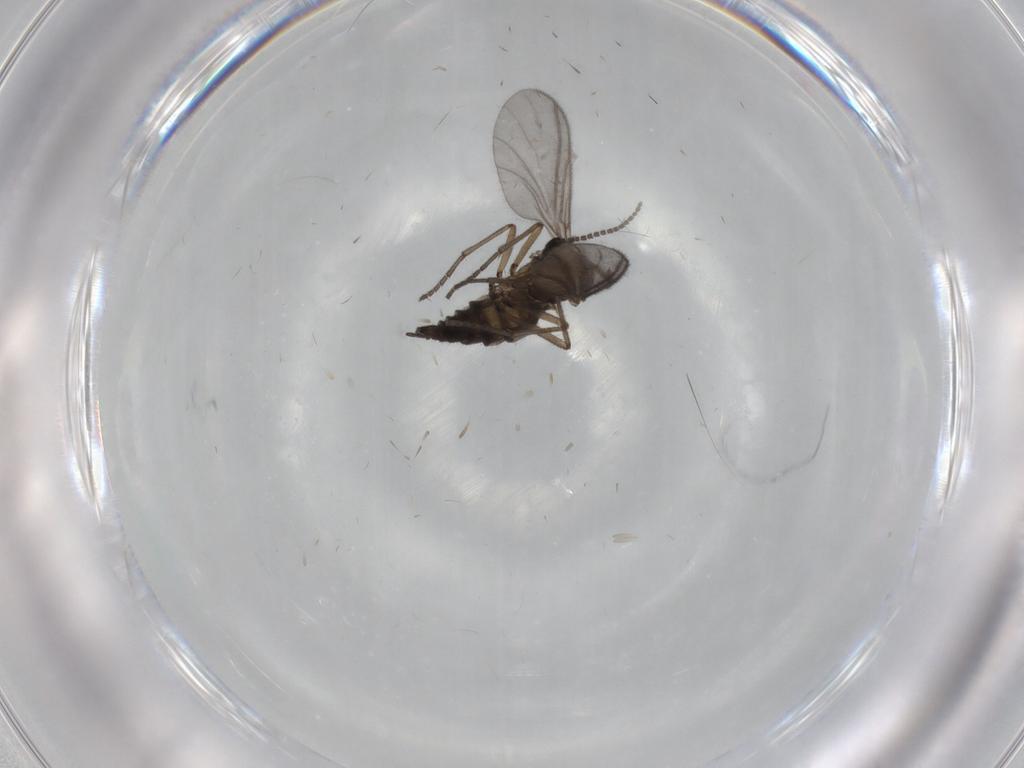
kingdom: Animalia
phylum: Arthropoda
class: Insecta
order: Diptera
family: Sciaridae
